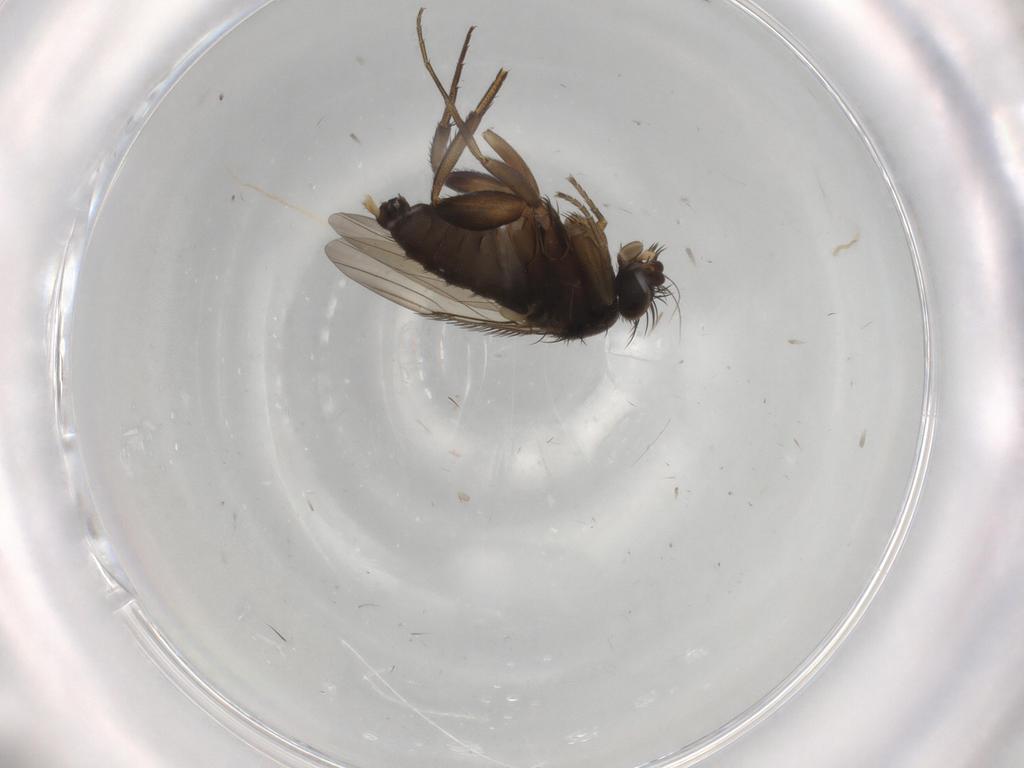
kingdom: Animalia
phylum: Arthropoda
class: Insecta
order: Diptera
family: Phoridae
